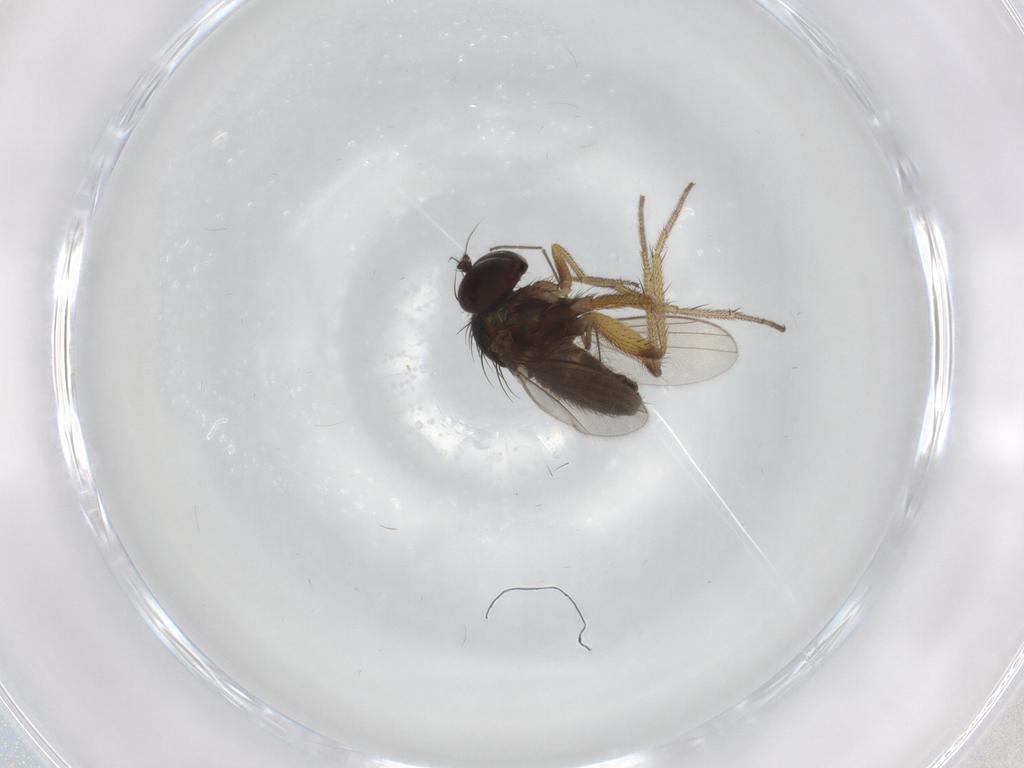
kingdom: Animalia
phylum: Arthropoda
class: Insecta
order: Diptera
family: Dolichopodidae
